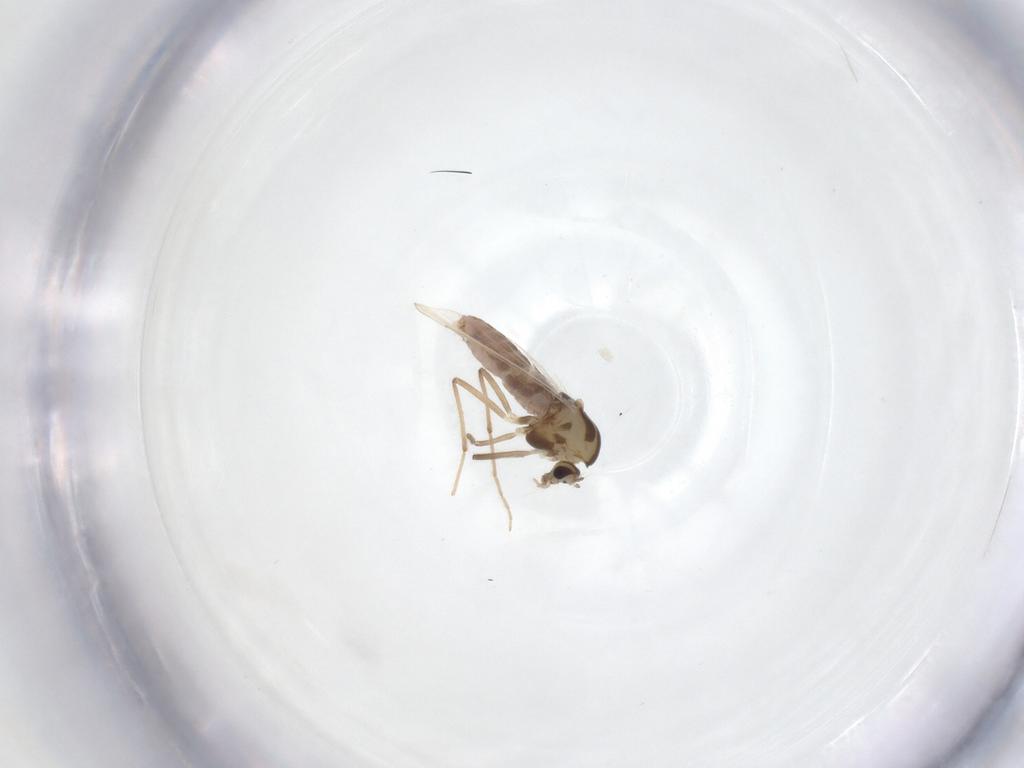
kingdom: Animalia
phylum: Arthropoda
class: Insecta
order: Diptera
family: Chironomidae
